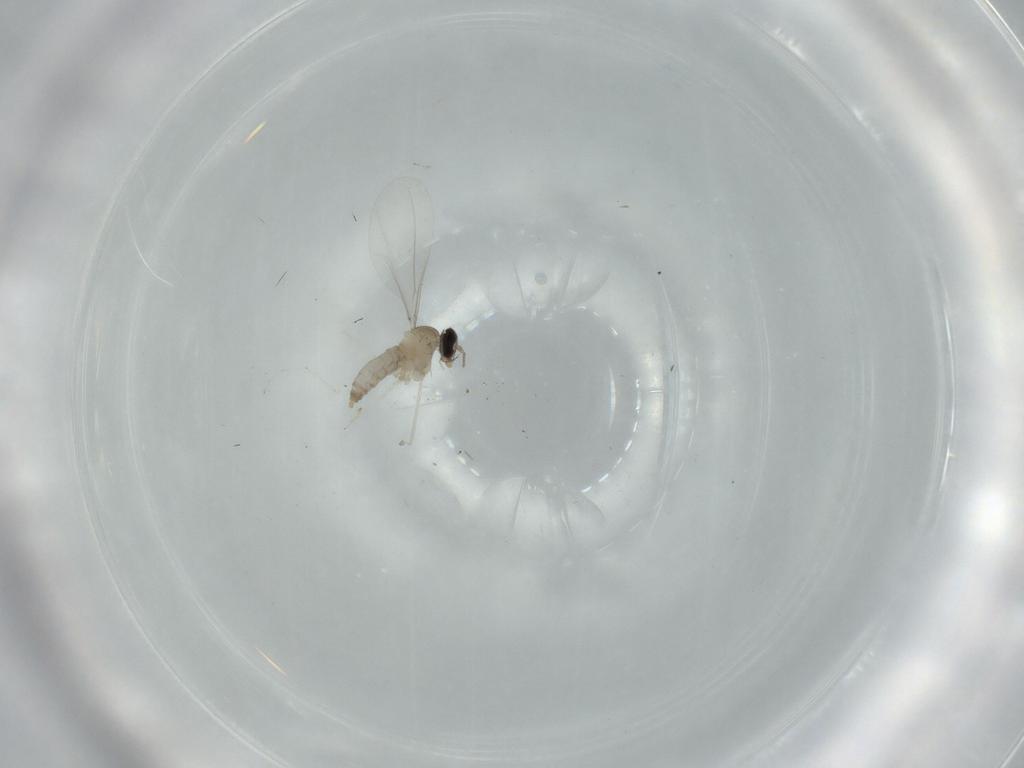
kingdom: Animalia
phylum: Arthropoda
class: Insecta
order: Diptera
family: Cecidomyiidae
